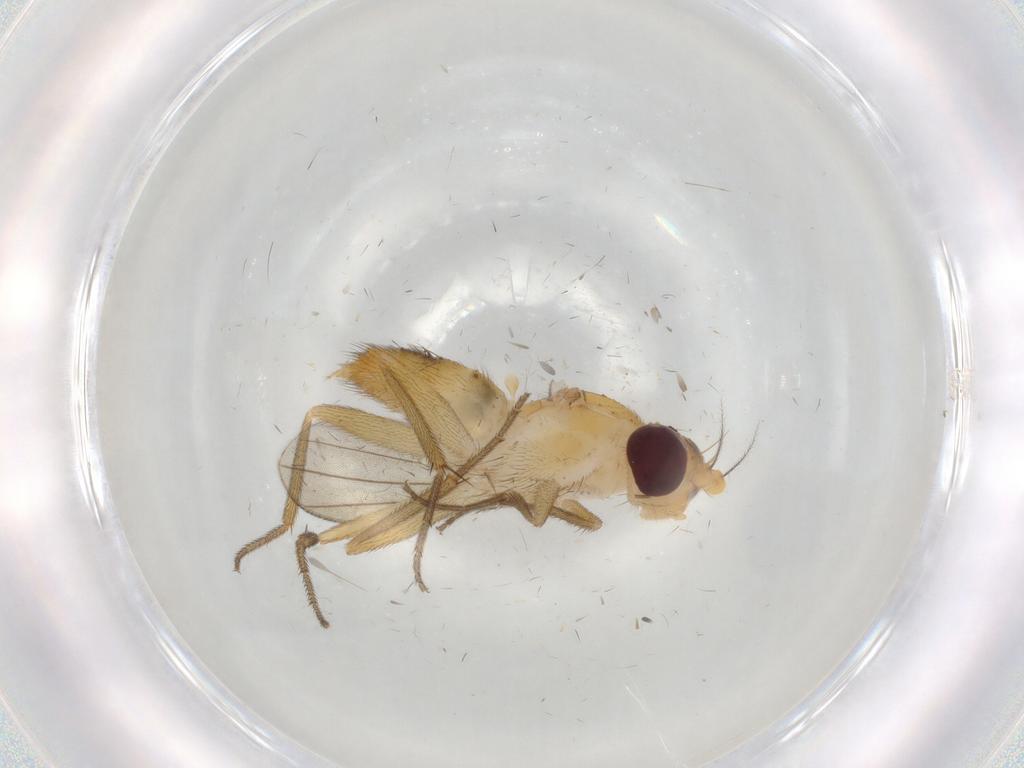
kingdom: Animalia
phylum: Arthropoda
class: Insecta
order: Diptera
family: Clusiidae
